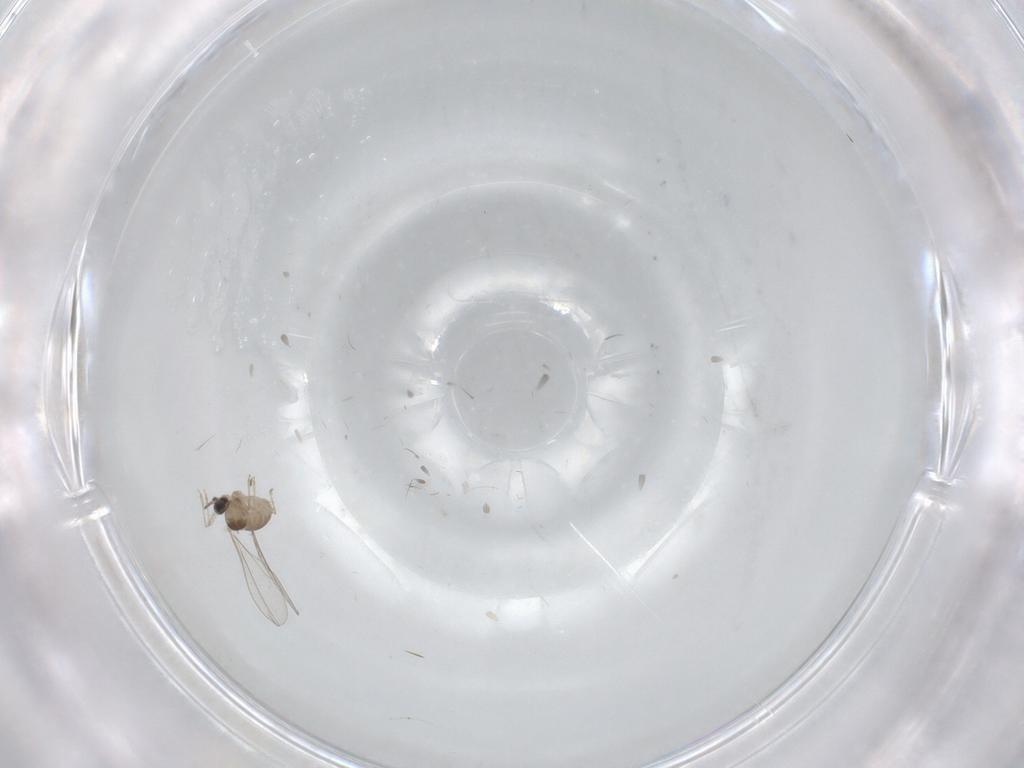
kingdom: Animalia
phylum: Arthropoda
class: Insecta
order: Diptera
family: Cecidomyiidae
